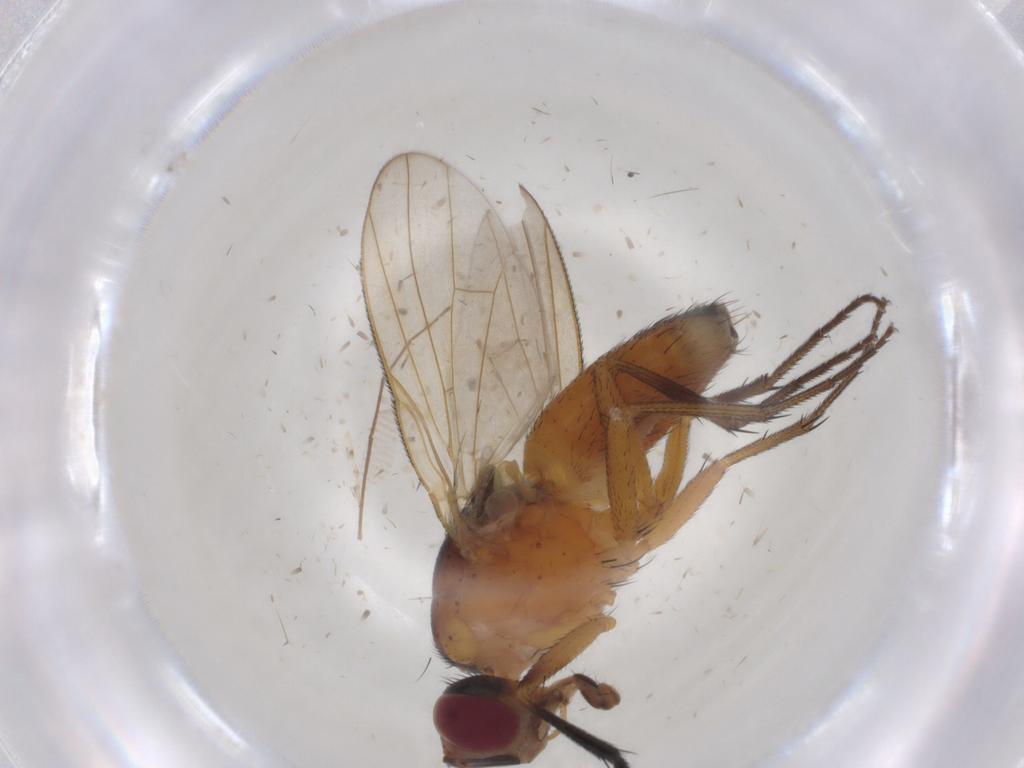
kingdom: Animalia
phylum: Arthropoda
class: Insecta
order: Diptera
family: Muscidae
